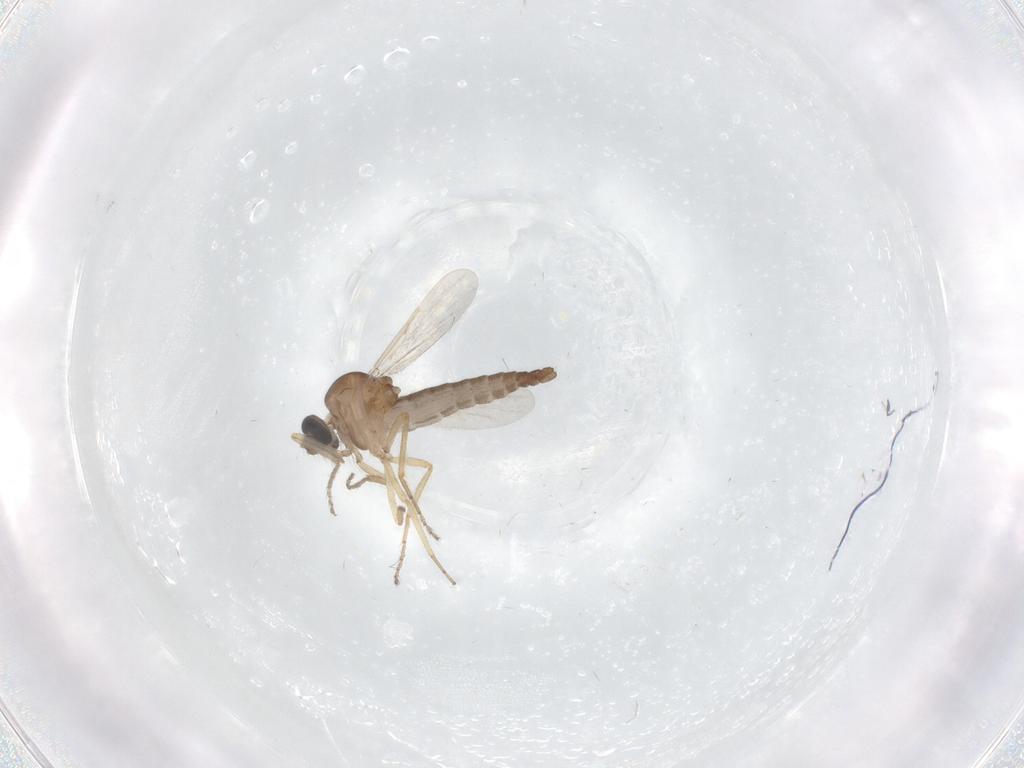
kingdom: Animalia
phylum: Arthropoda
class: Insecta
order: Diptera
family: Ceratopogonidae
